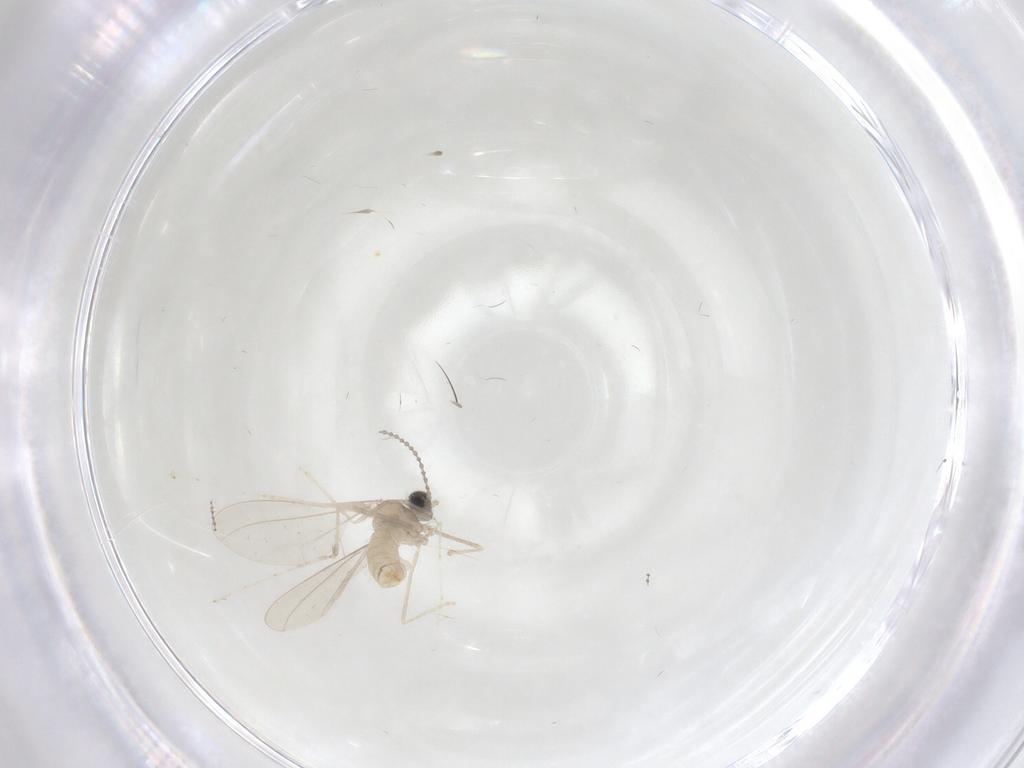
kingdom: Animalia
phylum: Arthropoda
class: Insecta
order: Diptera
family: Cecidomyiidae
